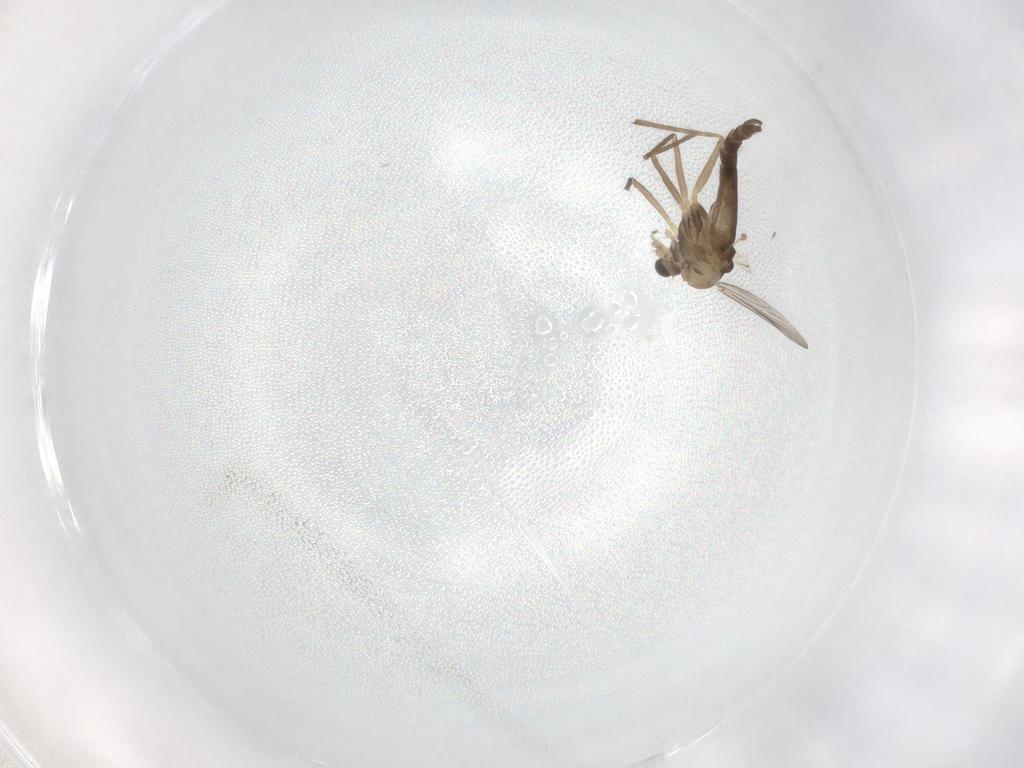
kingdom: Animalia
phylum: Arthropoda
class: Insecta
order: Diptera
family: Chironomidae
